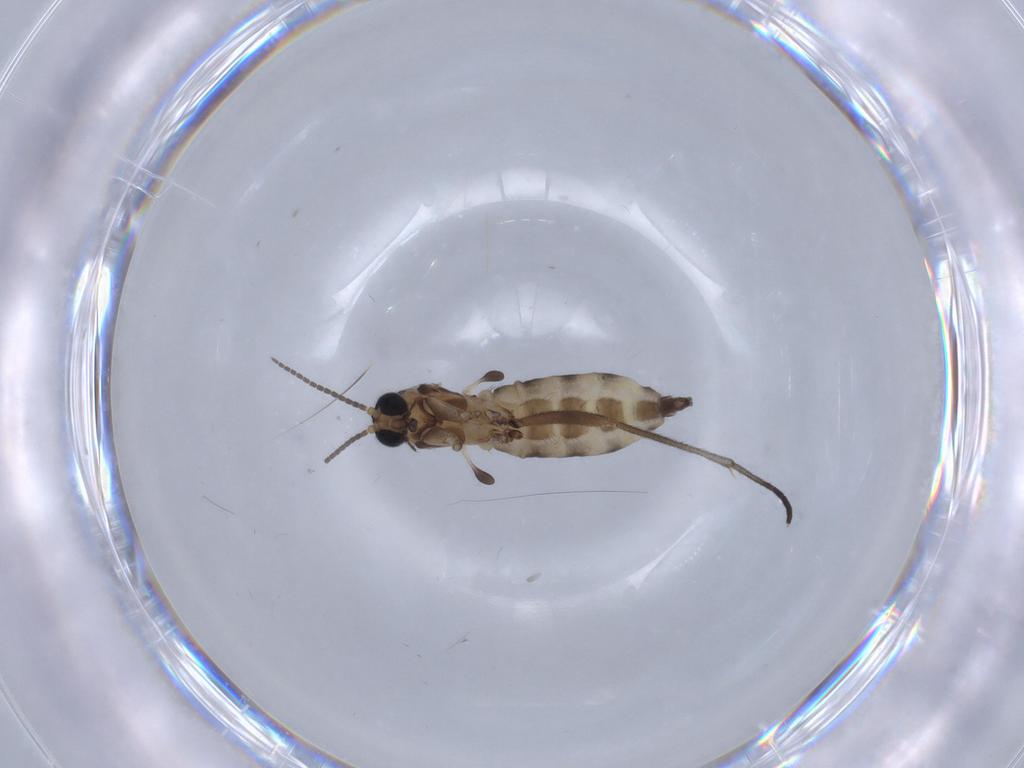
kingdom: Animalia
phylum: Arthropoda
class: Insecta
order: Diptera
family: Sciaridae
